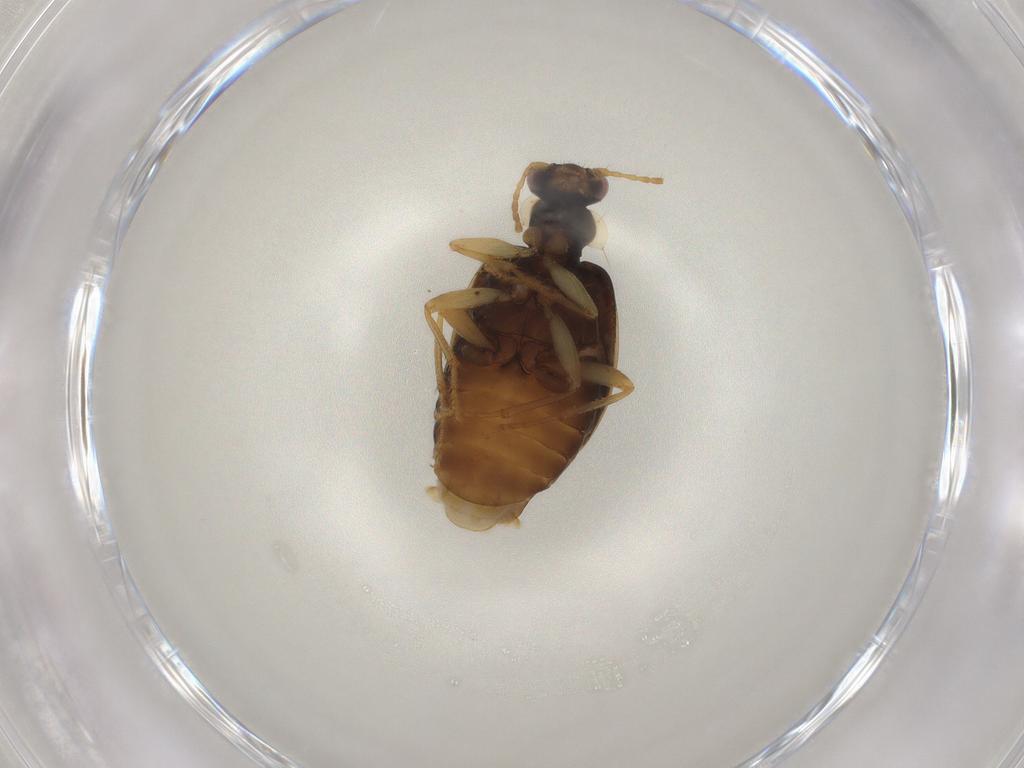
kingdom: Animalia
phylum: Arthropoda
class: Insecta
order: Coleoptera
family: Carabidae
